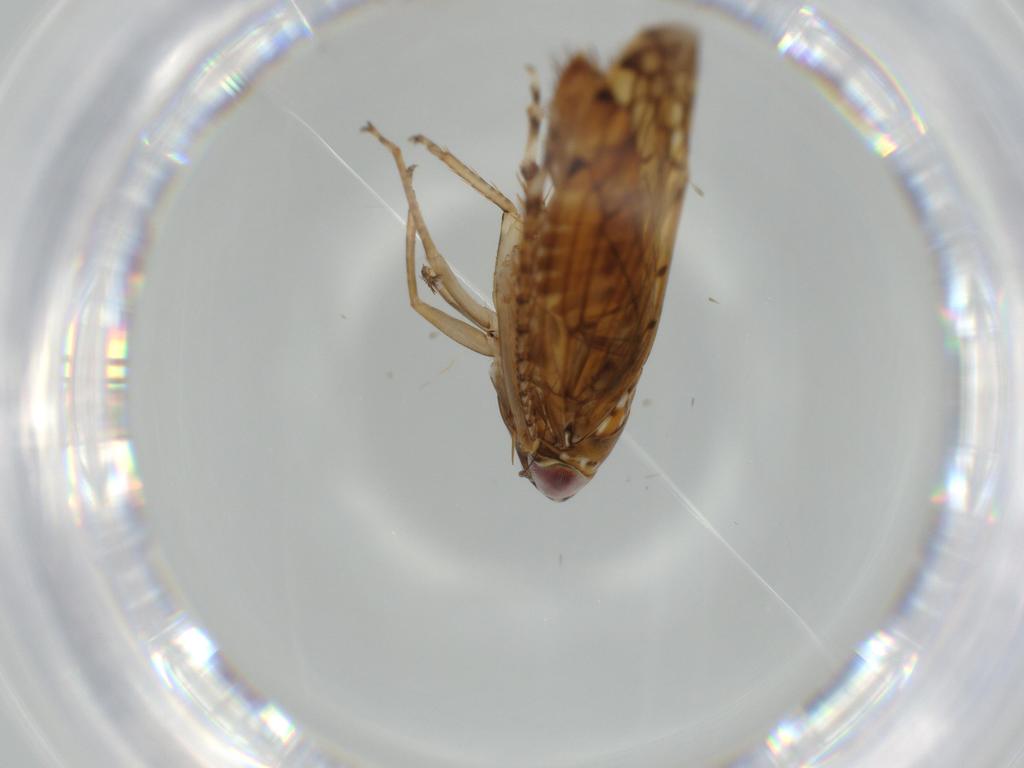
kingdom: Animalia
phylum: Arthropoda
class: Insecta
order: Hemiptera
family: Cicadellidae
